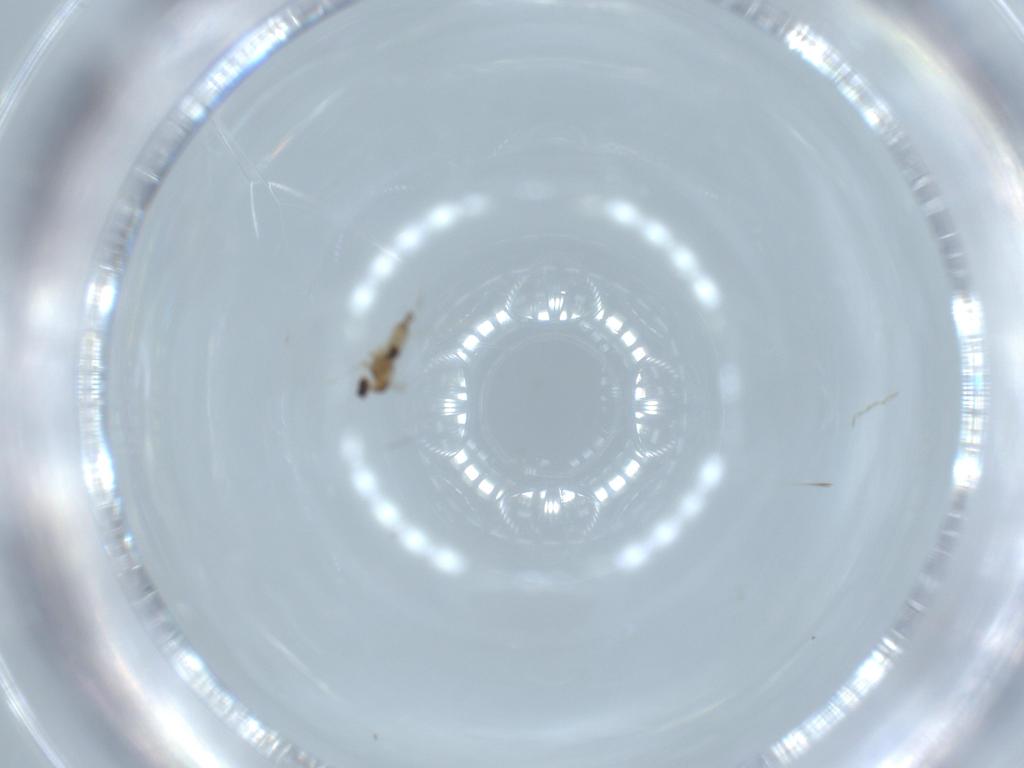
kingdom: Animalia
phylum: Arthropoda
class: Insecta
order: Diptera
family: Cecidomyiidae
